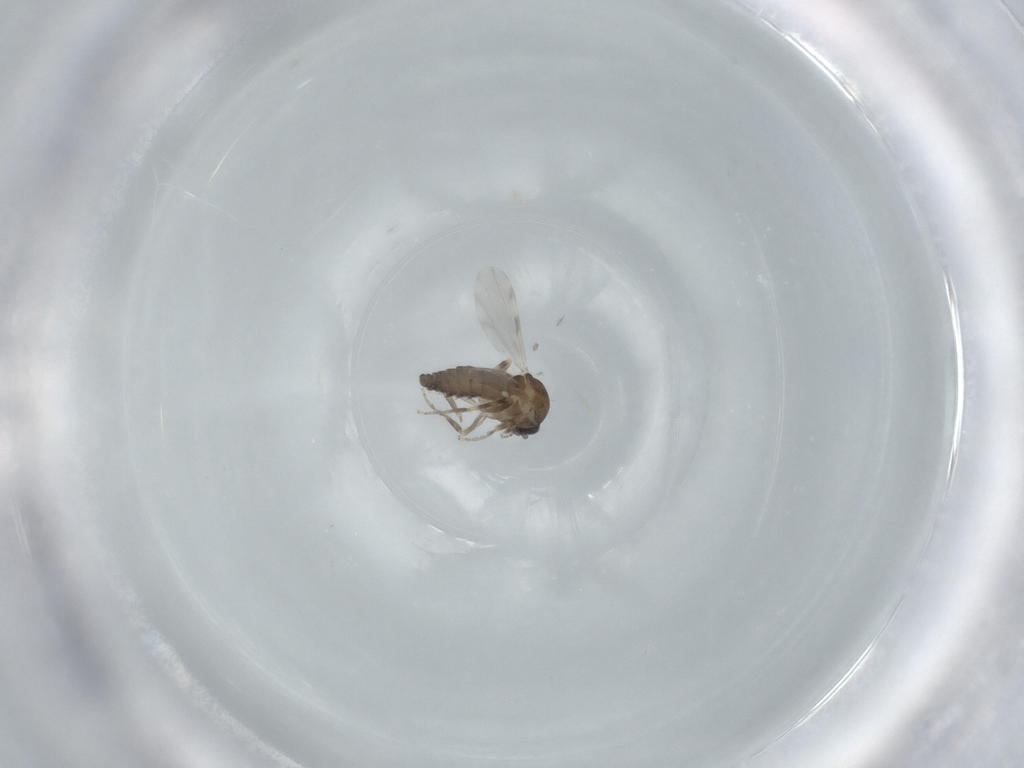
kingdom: Animalia
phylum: Arthropoda
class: Insecta
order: Diptera
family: Ceratopogonidae
